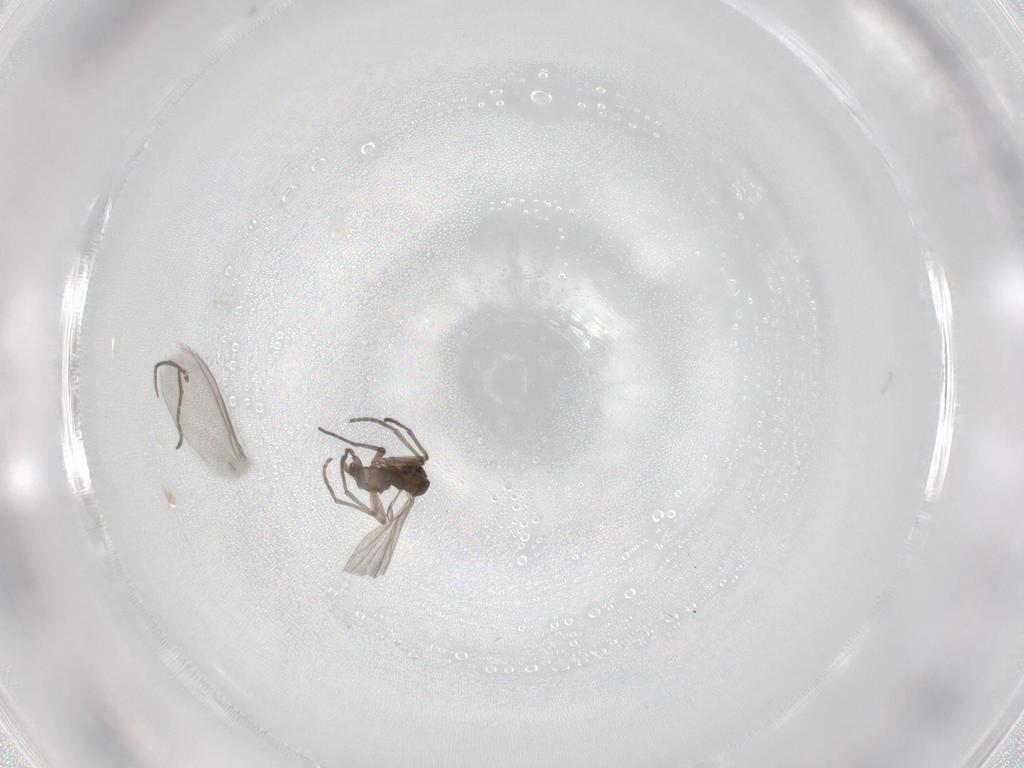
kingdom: Animalia
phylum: Arthropoda
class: Insecta
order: Diptera
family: Sciaridae
